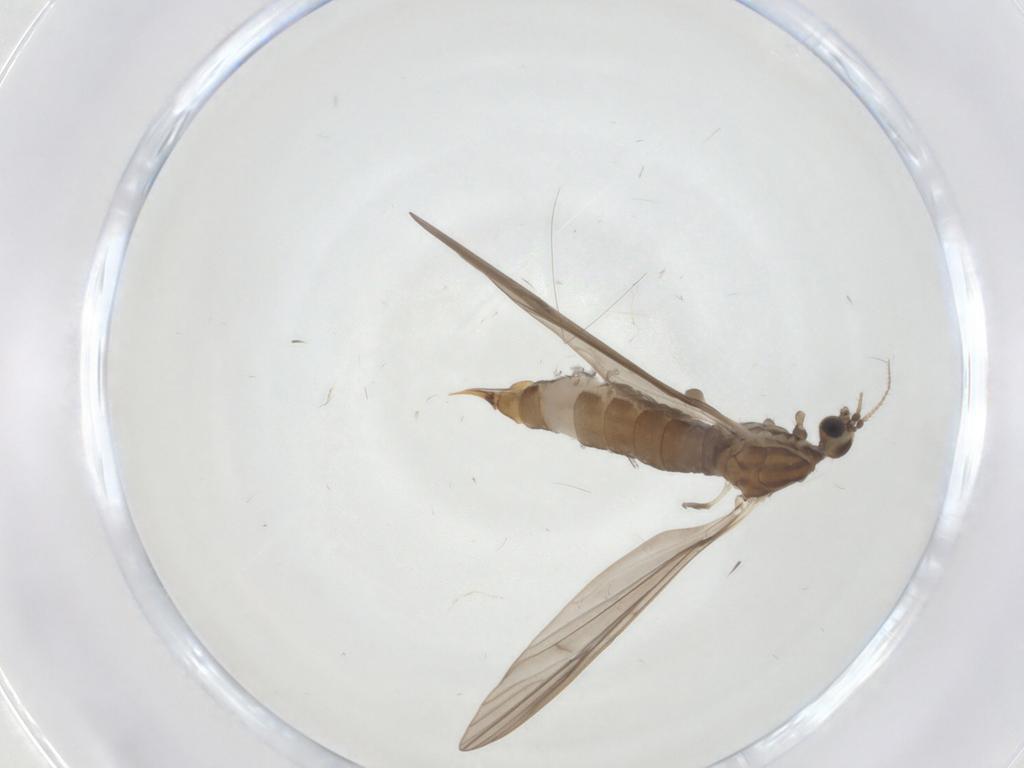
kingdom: Animalia
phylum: Arthropoda
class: Insecta
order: Diptera
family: Limoniidae
